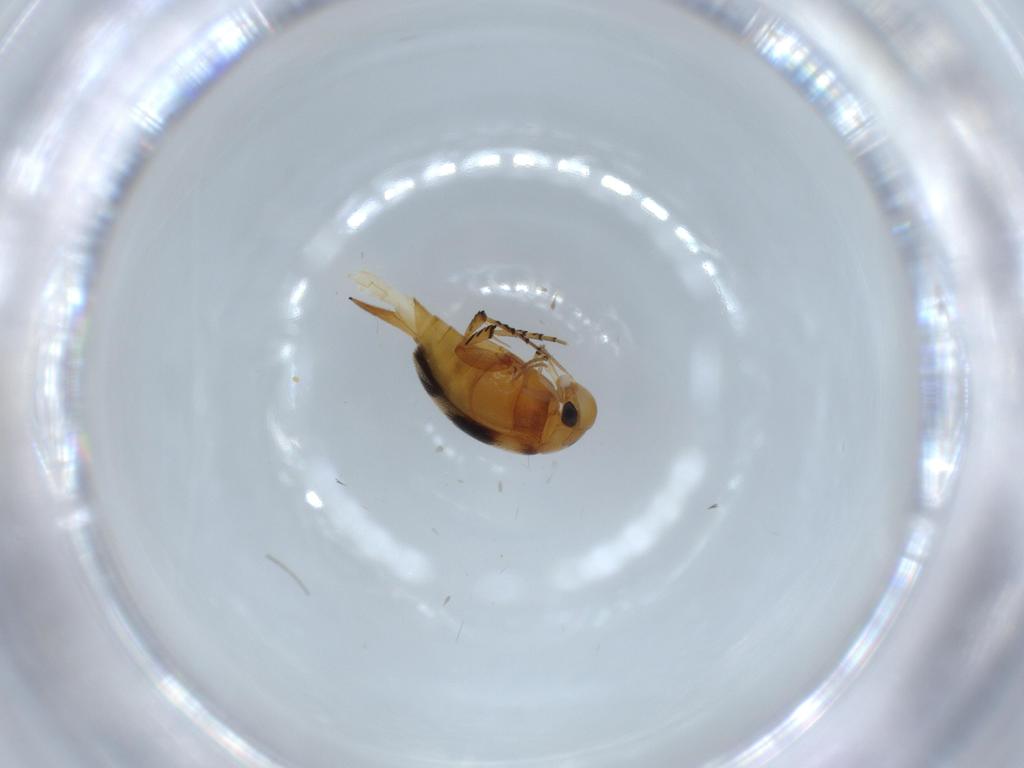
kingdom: Animalia
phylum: Arthropoda
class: Insecta
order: Coleoptera
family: Mordellidae
